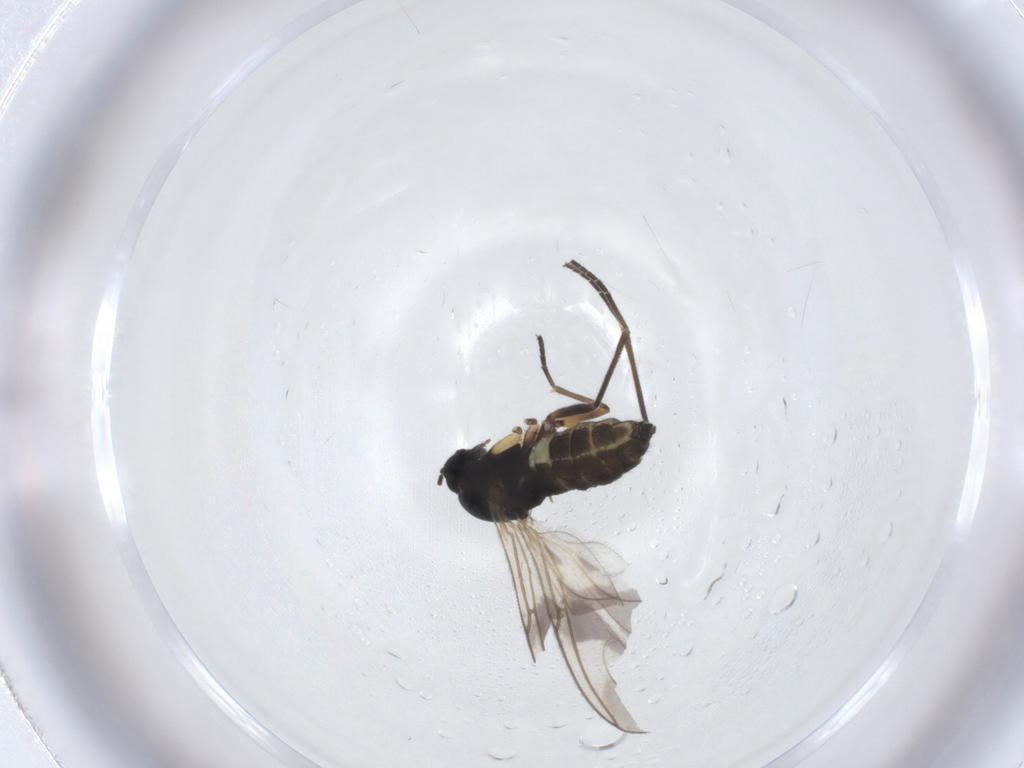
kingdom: Animalia
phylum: Arthropoda
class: Insecta
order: Diptera
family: Sciaridae
